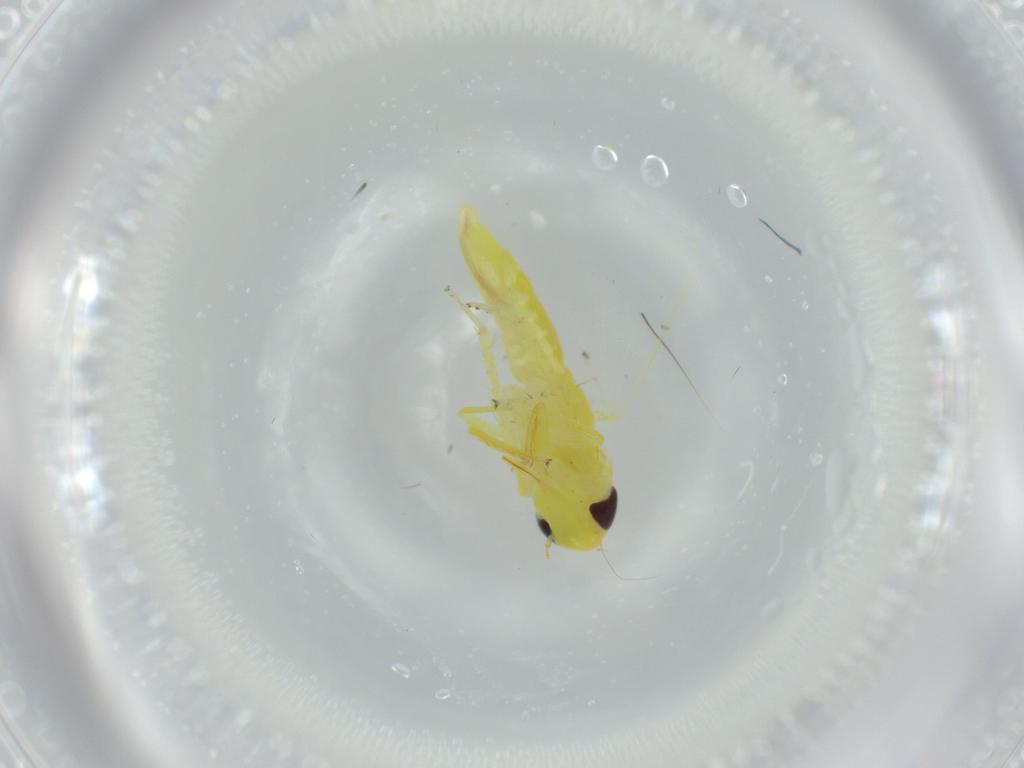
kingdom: Animalia
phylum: Arthropoda
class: Insecta
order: Hemiptera
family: Cicadellidae
